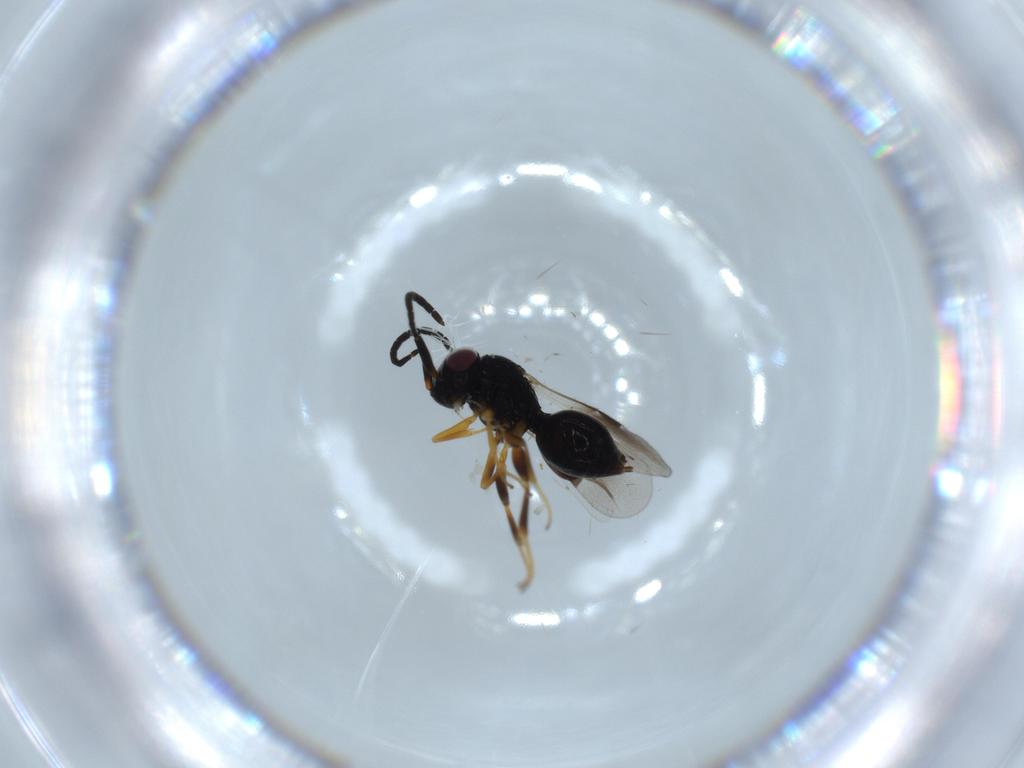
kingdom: Animalia
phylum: Arthropoda
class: Insecta
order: Hymenoptera
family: Megaspilidae
